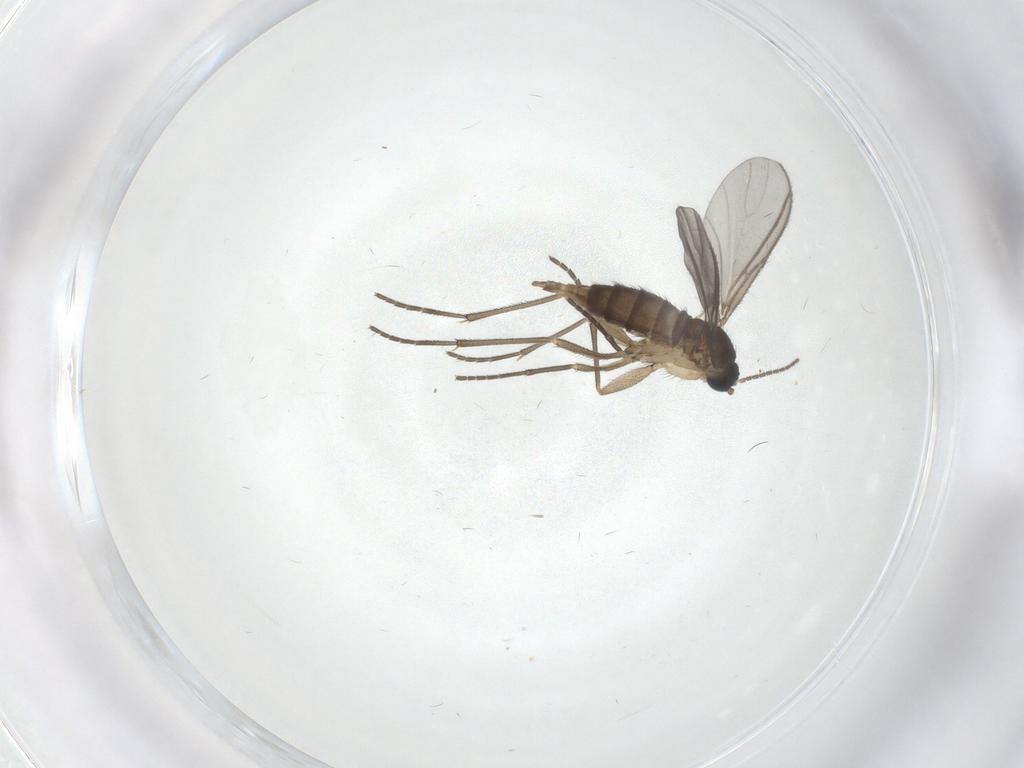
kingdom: Animalia
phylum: Arthropoda
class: Insecta
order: Diptera
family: Sciaridae
